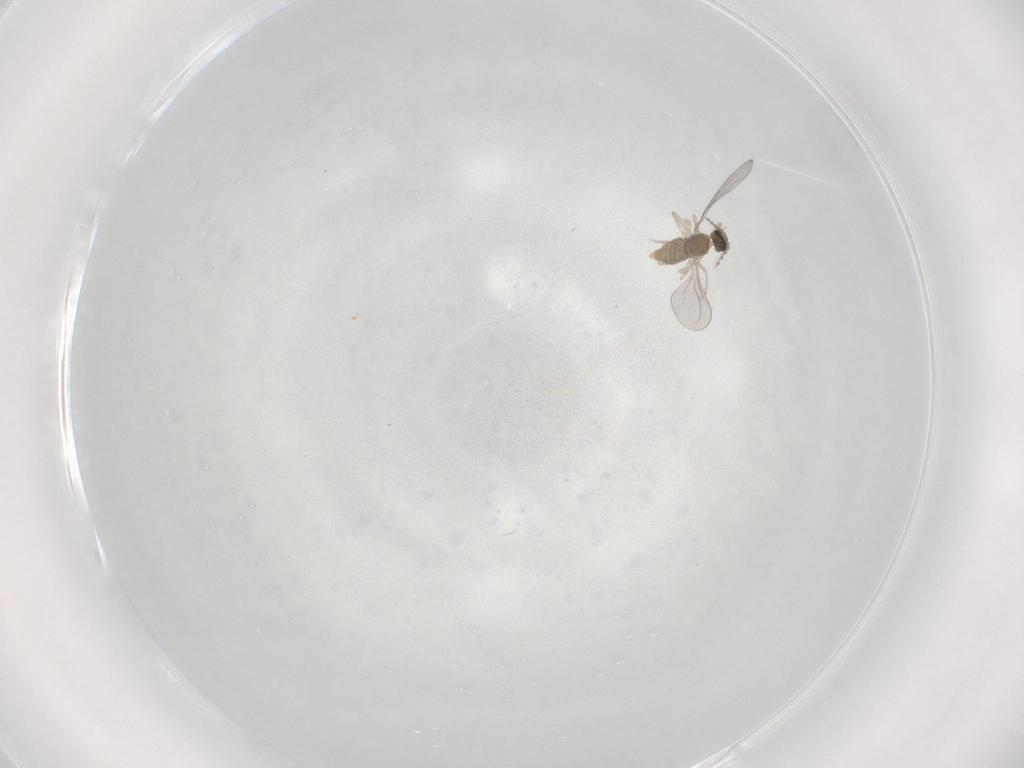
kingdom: Animalia
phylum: Arthropoda
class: Insecta
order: Diptera
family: Cecidomyiidae
